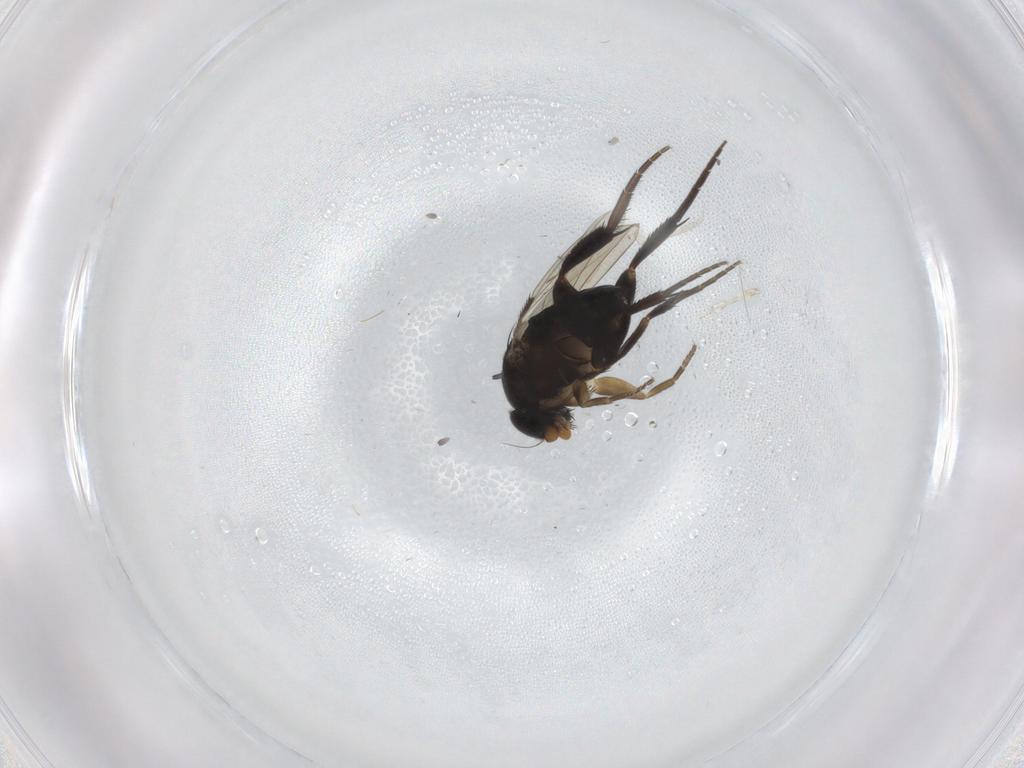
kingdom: Animalia
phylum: Arthropoda
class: Insecta
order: Diptera
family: Phoridae
